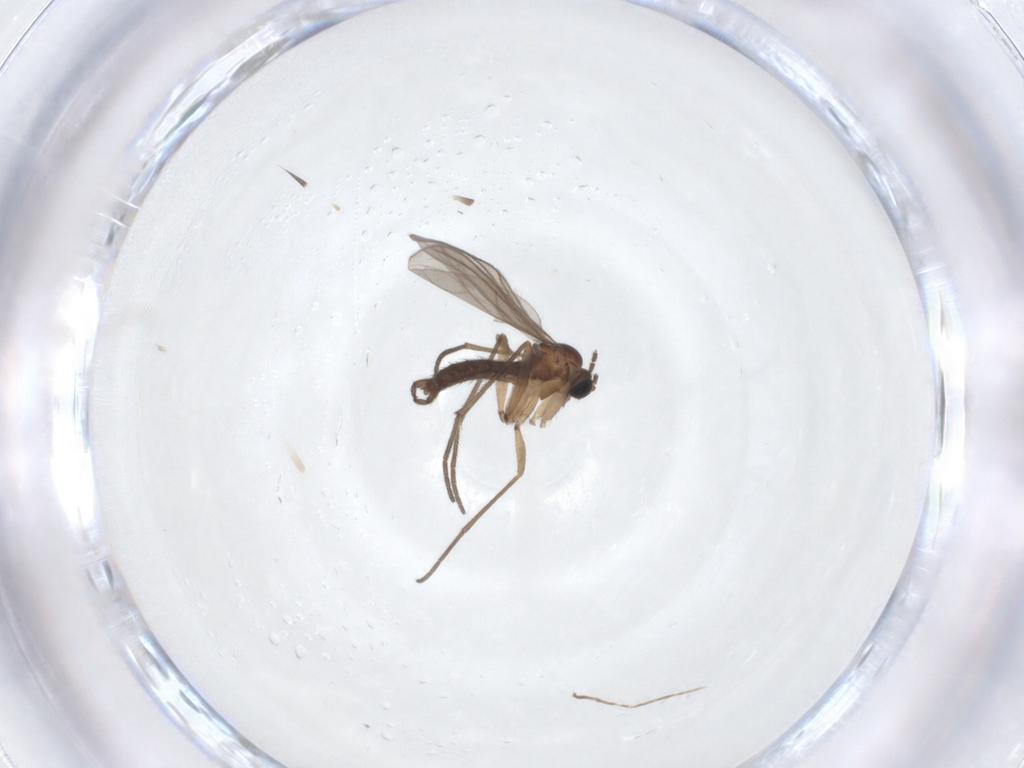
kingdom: Animalia
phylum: Arthropoda
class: Insecta
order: Diptera
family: Sciaridae
